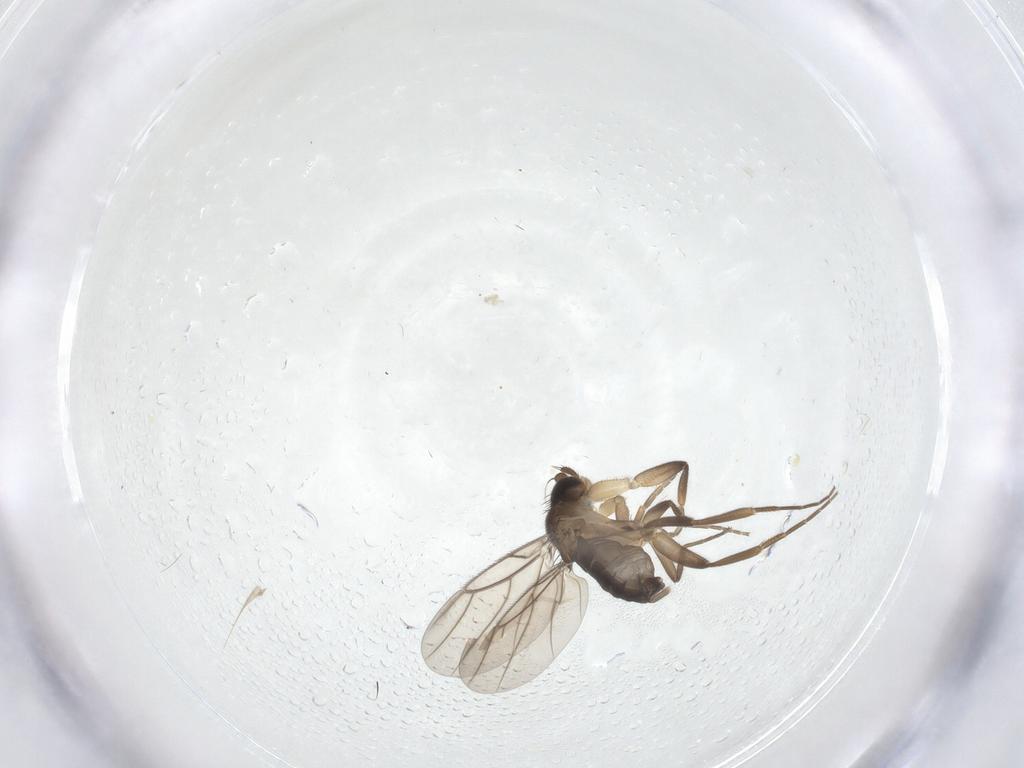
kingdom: Animalia
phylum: Arthropoda
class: Insecta
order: Diptera
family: Phoridae
